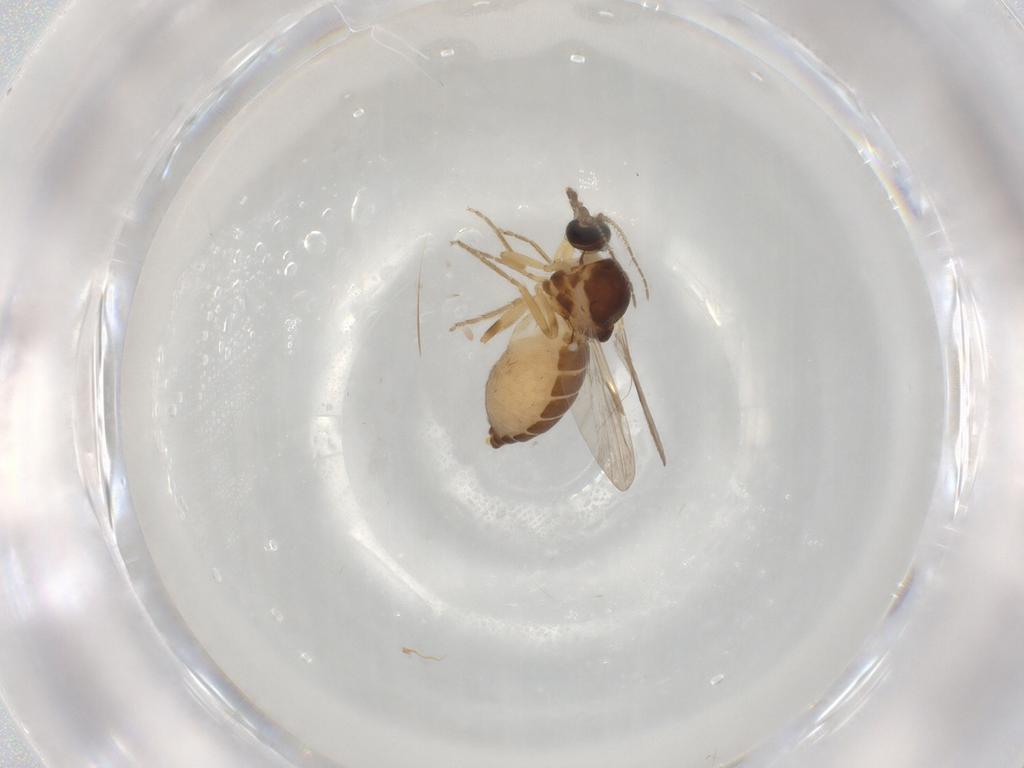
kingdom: Animalia
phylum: Arthropoda
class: Insecta
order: Diptera
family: Ceratopogonidae
